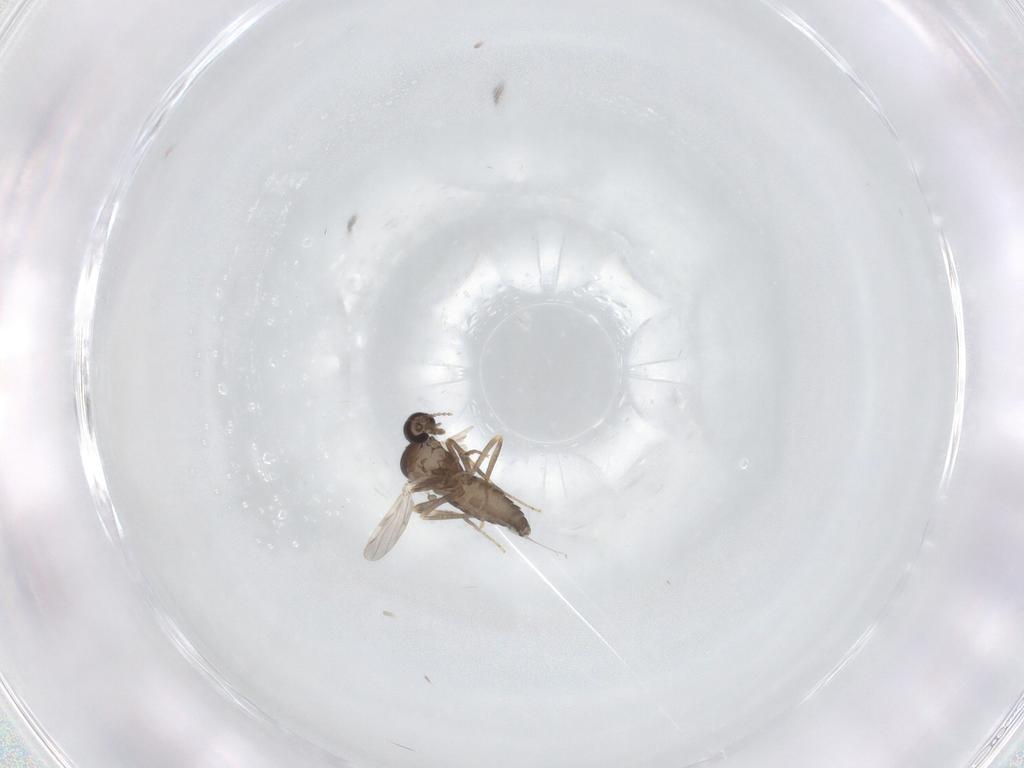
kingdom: Animalia
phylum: Arthropoda
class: Insecta
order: Diptera
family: Ceratopogonidae
